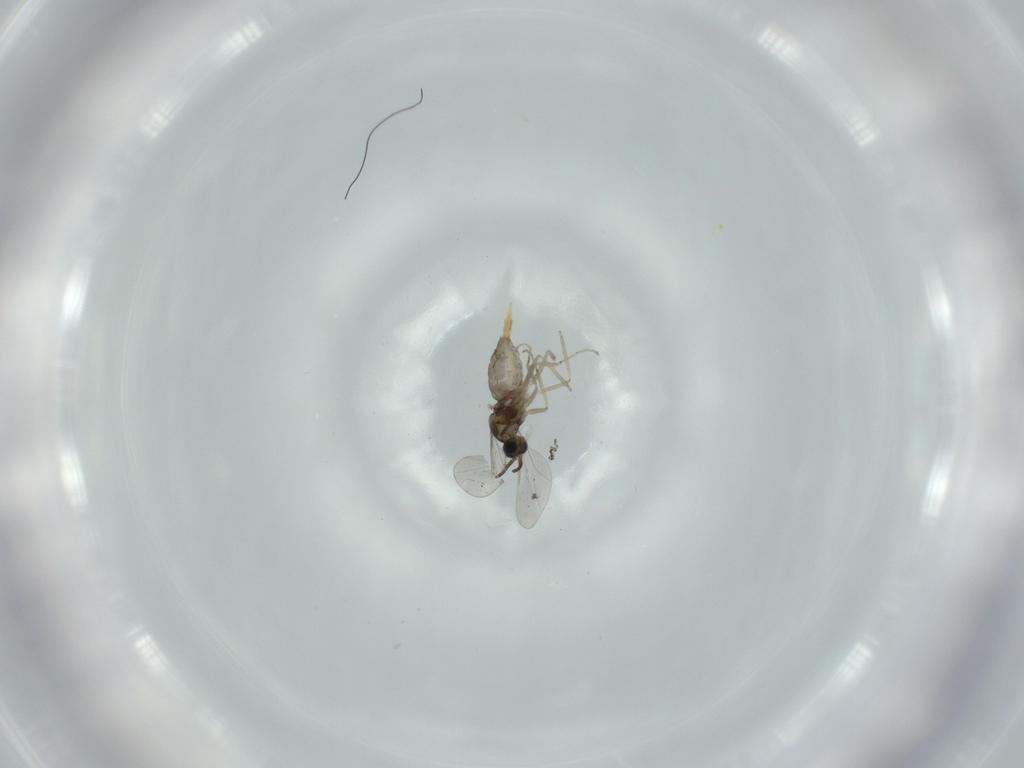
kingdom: Animalia
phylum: Arthropoda
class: Insecta
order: Diptera
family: Cecidomyiidae
